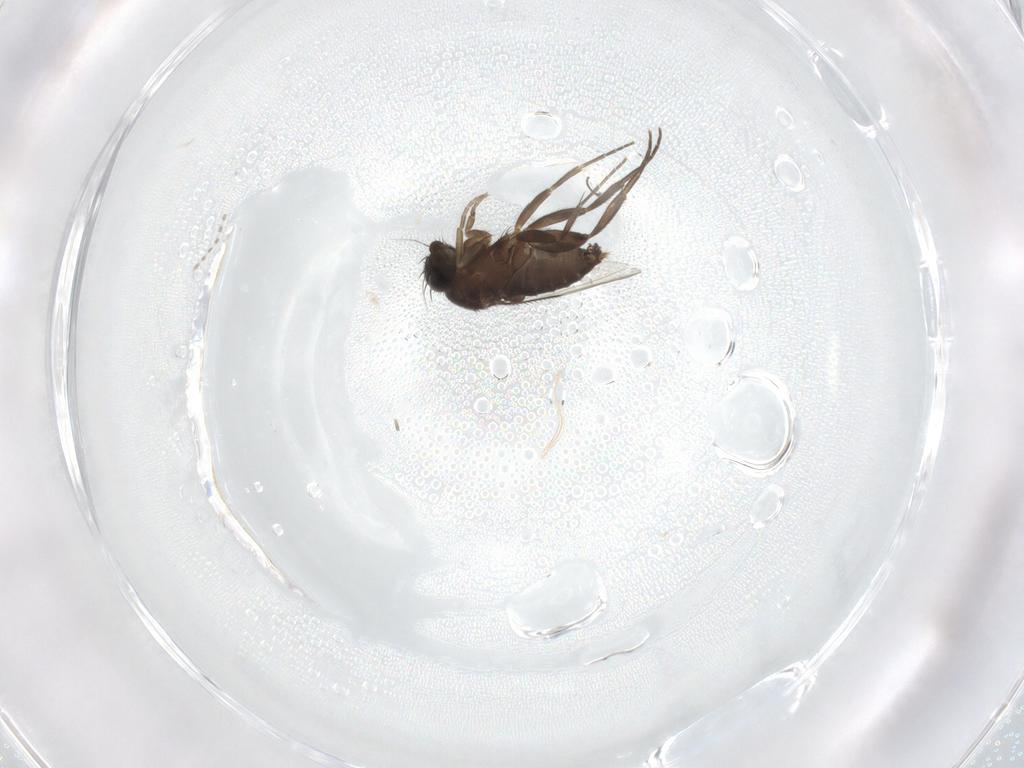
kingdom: Animalia
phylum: Arthropoda
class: Insecta
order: Diptera
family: Phoridae
